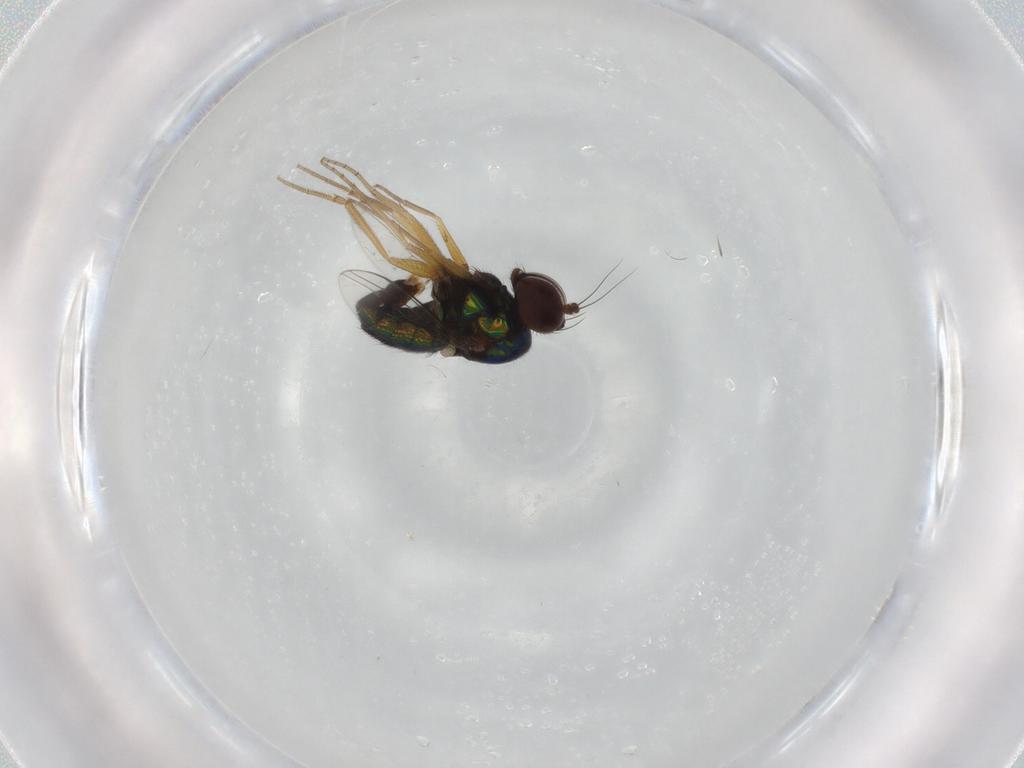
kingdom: Animalia
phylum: Arthropoda
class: Insecta
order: Diptera
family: Dolichopodidae
